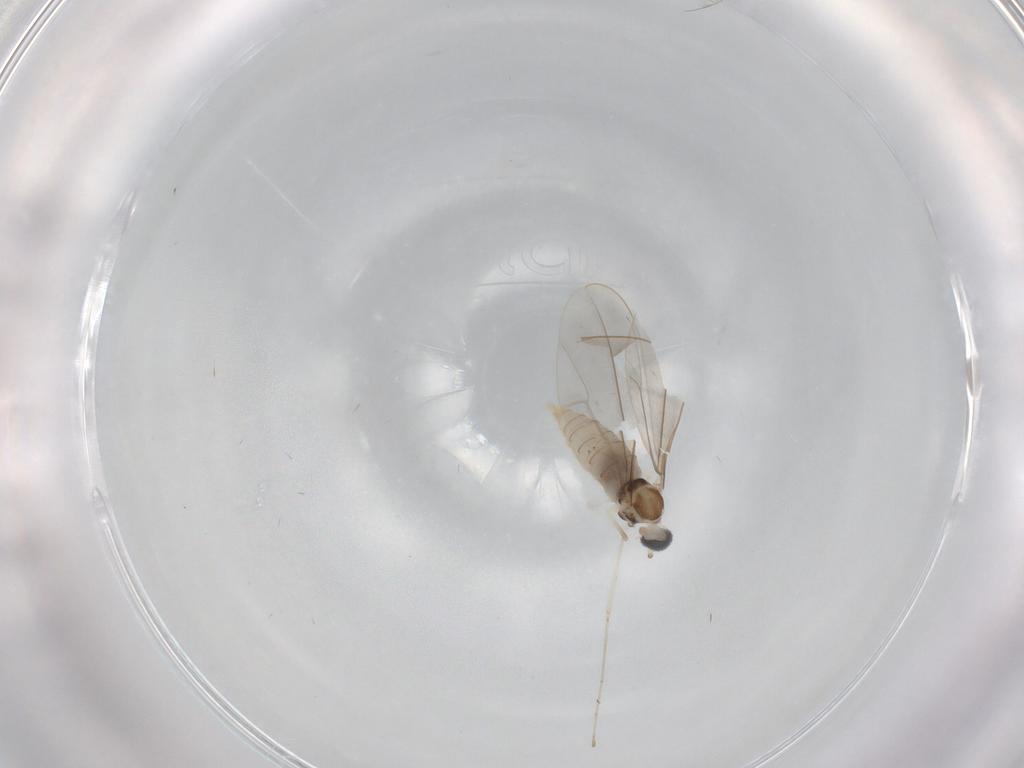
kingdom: Animalia
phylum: Arthropoda
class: Insecta
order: Diptera
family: Cecidomyiidae
